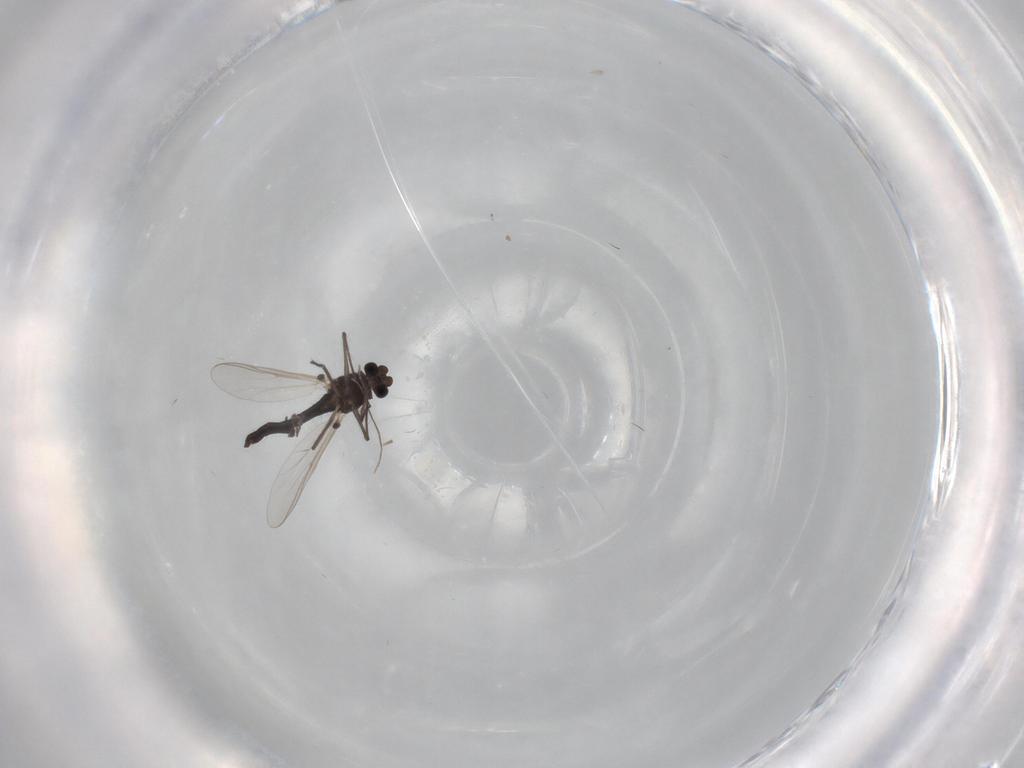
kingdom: Animalia
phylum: Arthropoda
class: Insecta
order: Diptera
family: Chironomidae
